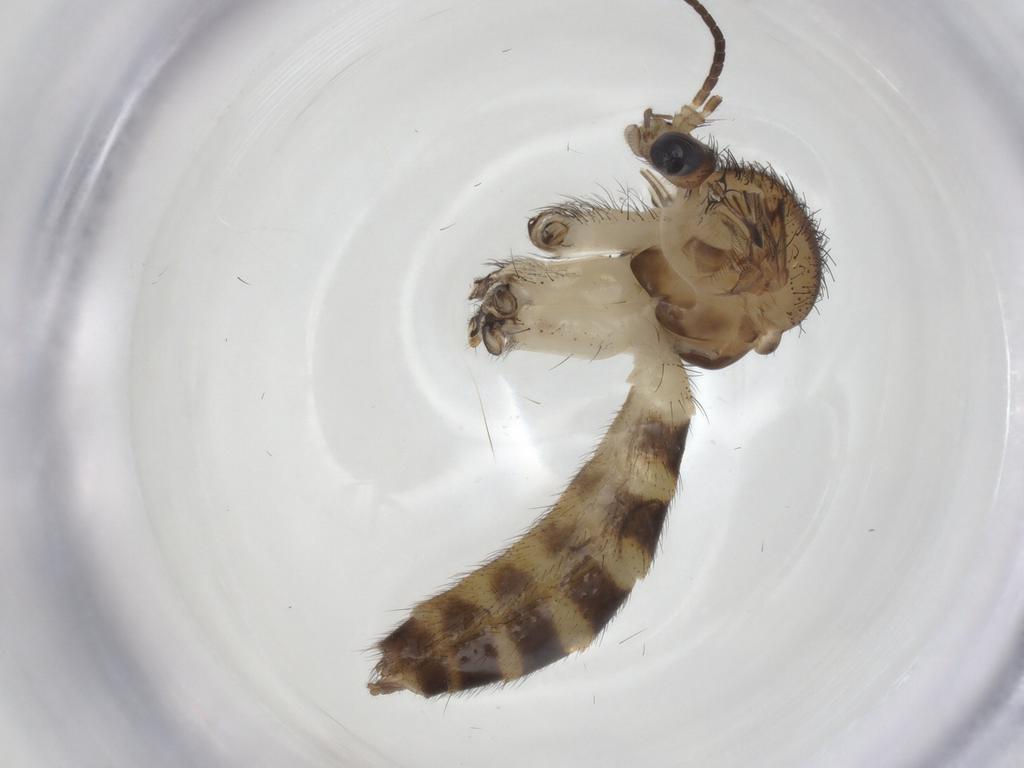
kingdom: Animalia
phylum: Arthropoda
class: Insecta
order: Diptera
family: Mycetophilidae
